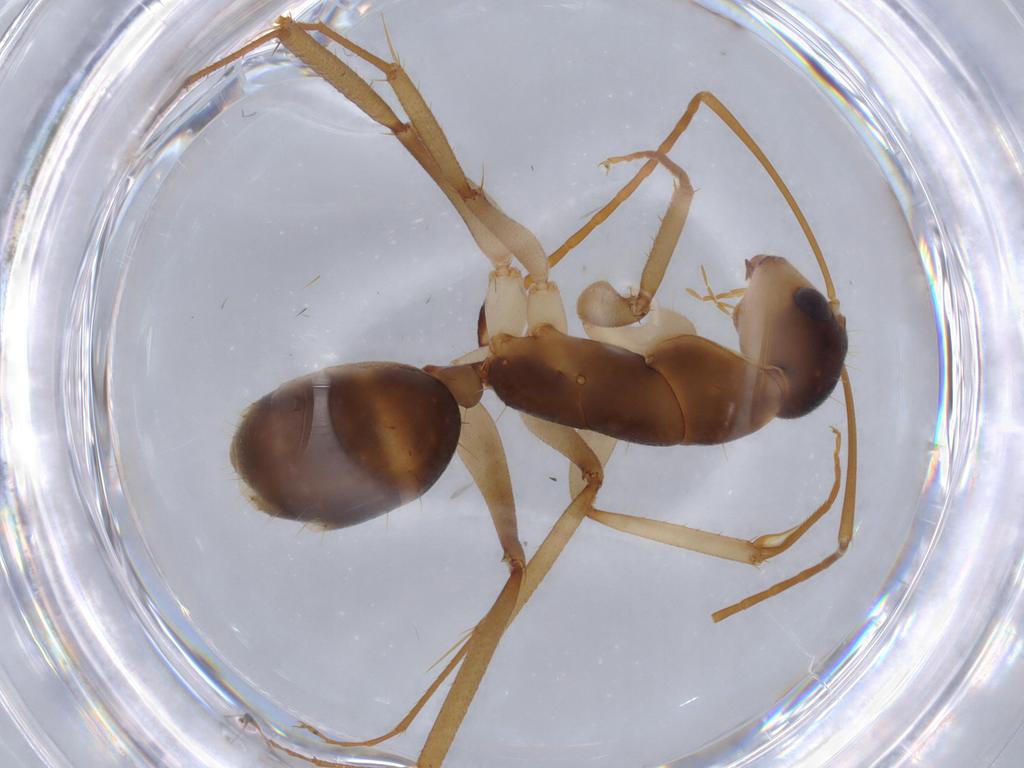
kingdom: Animalia
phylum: Arthropoda
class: Insecta
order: Hymenoptera
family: Formicidae
